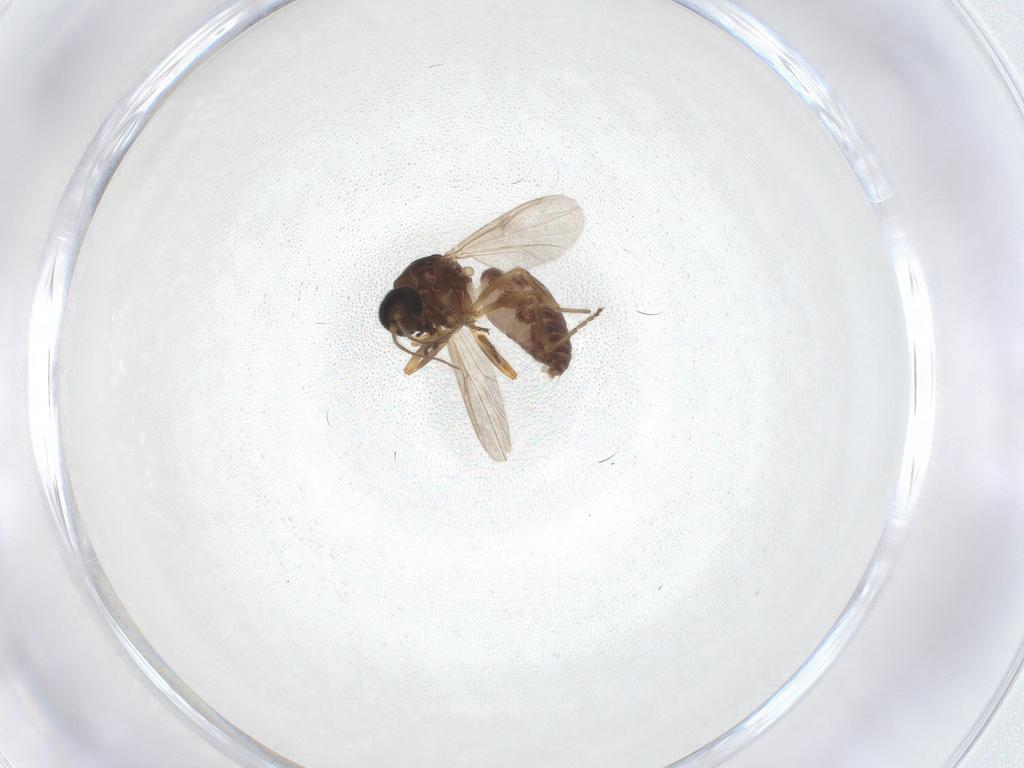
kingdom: Animalia
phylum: Arthropoda
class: Insecta
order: Diptera
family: Ceratopogonidae
